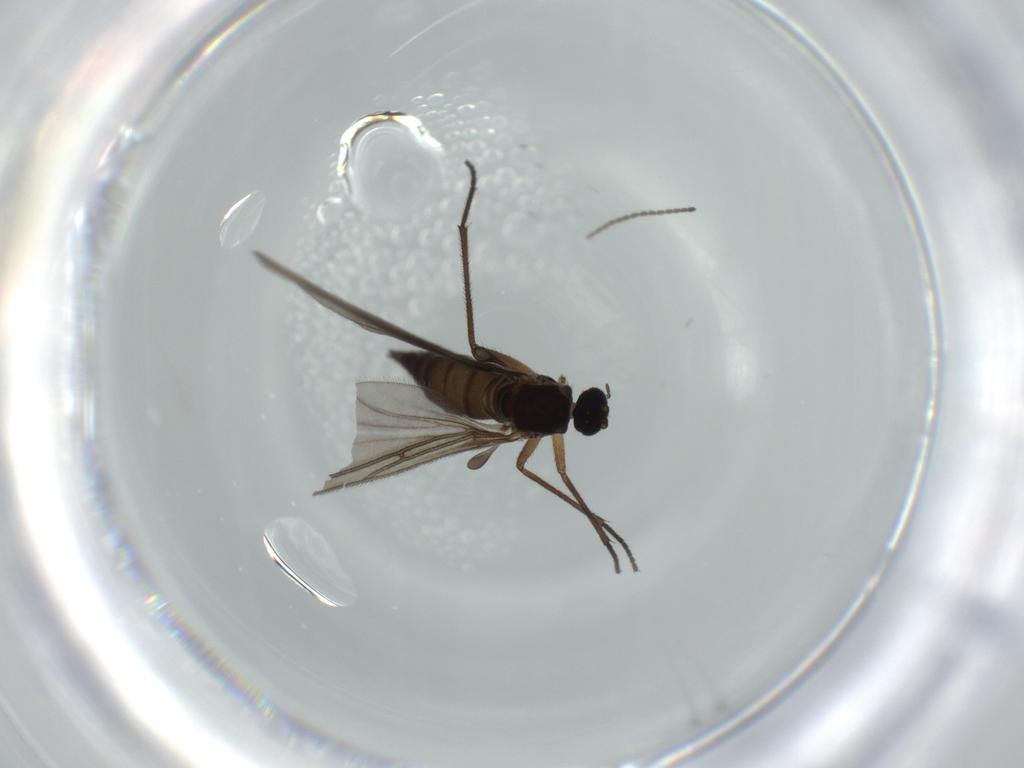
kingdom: Animalia
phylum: Arthropoda
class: Insecta
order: Diptera
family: Sciaridae
